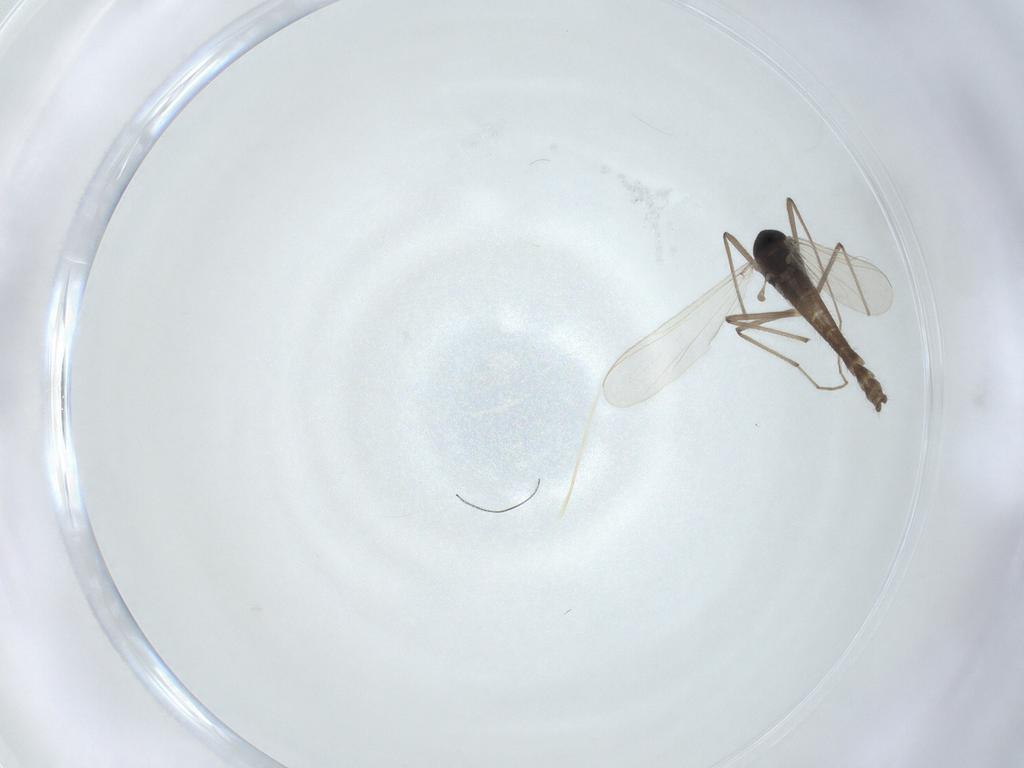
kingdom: Animalia
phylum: Arthropoda
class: Insecta
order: Diptera
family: Chironomidae
